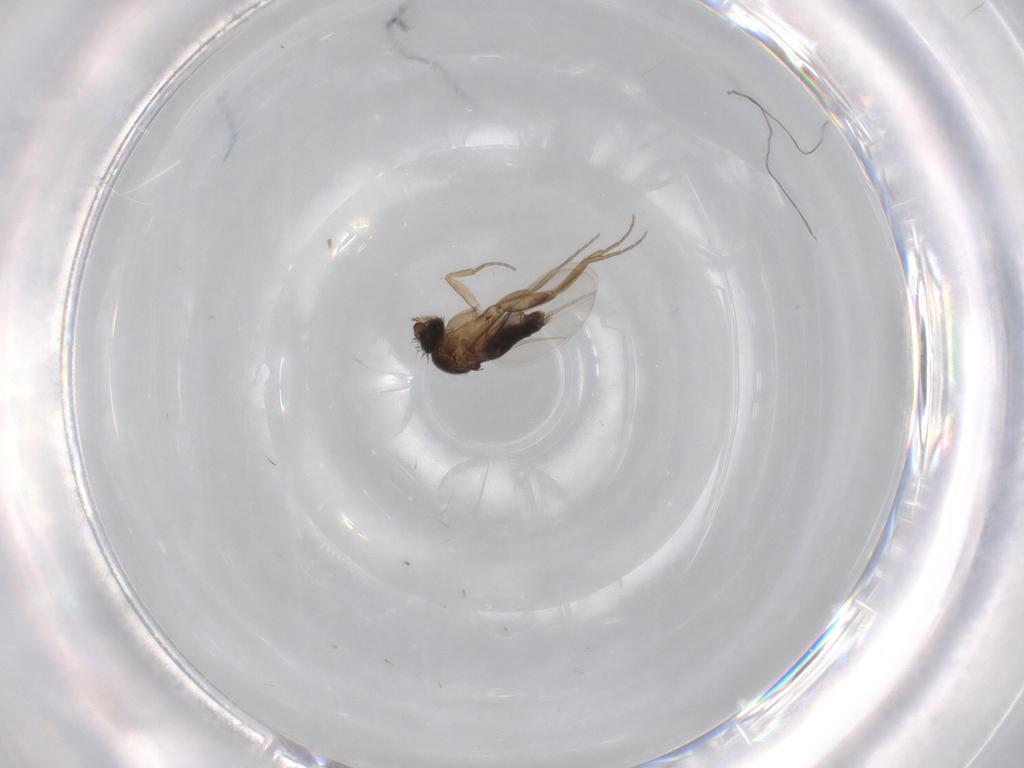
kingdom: Animalia
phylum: Arthropoda
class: Insecta
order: Diptera
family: Phoridae
